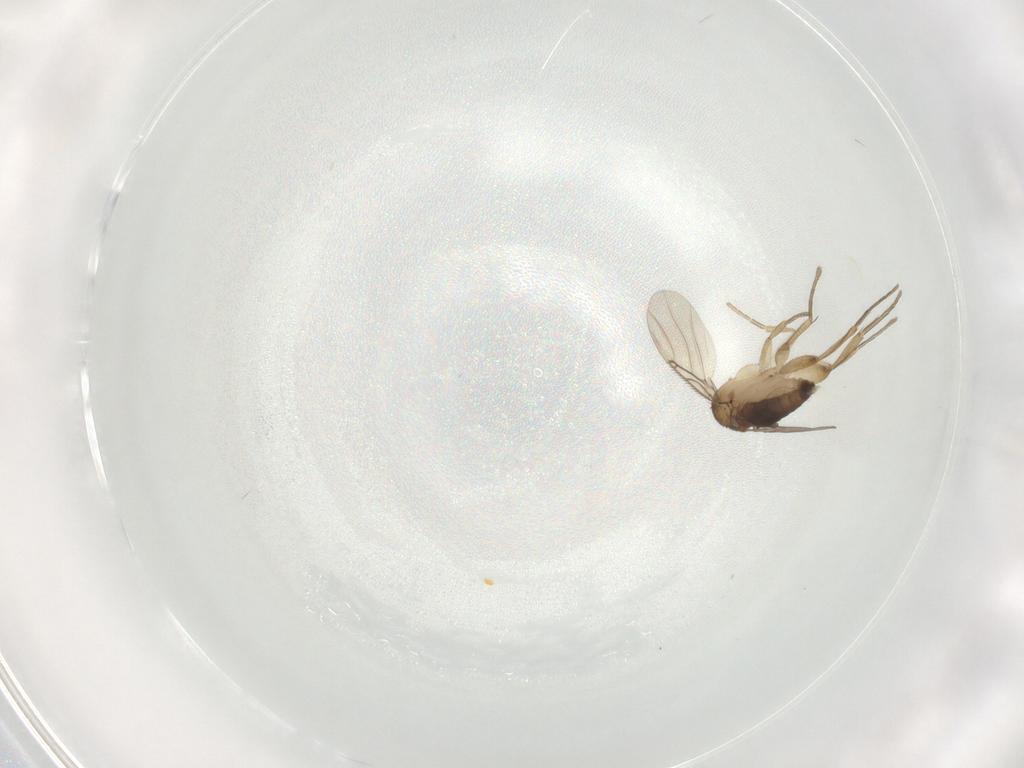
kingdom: Animalia
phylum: Arthropoda
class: Insecta
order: Diptera
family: Phoridae
